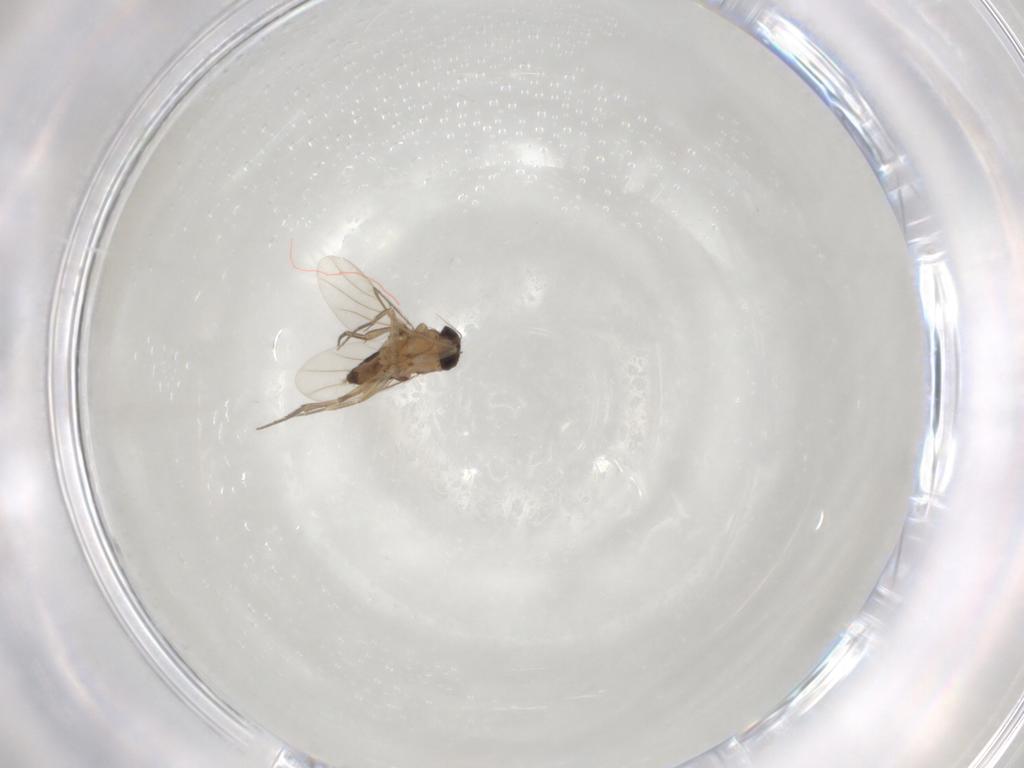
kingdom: Animalia
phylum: Arthropoda
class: Insecta
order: Diptera
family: Phoridae
